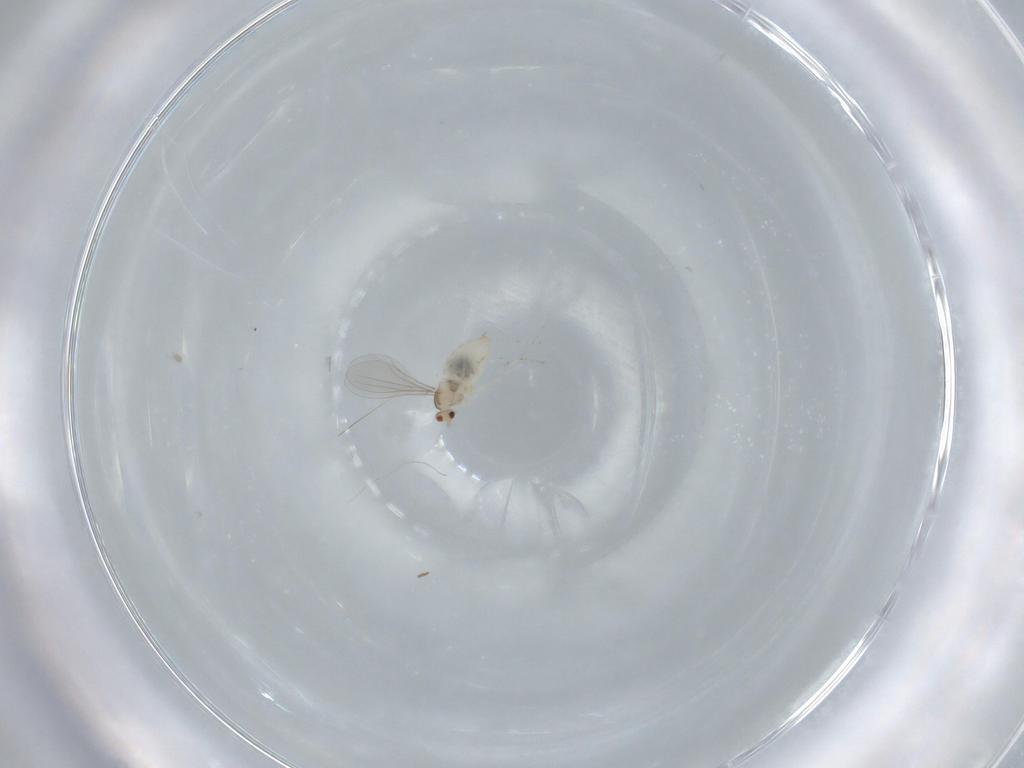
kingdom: Animalia
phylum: Arthropoda
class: Insecta
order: Diptera
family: Cecidomyiidae
